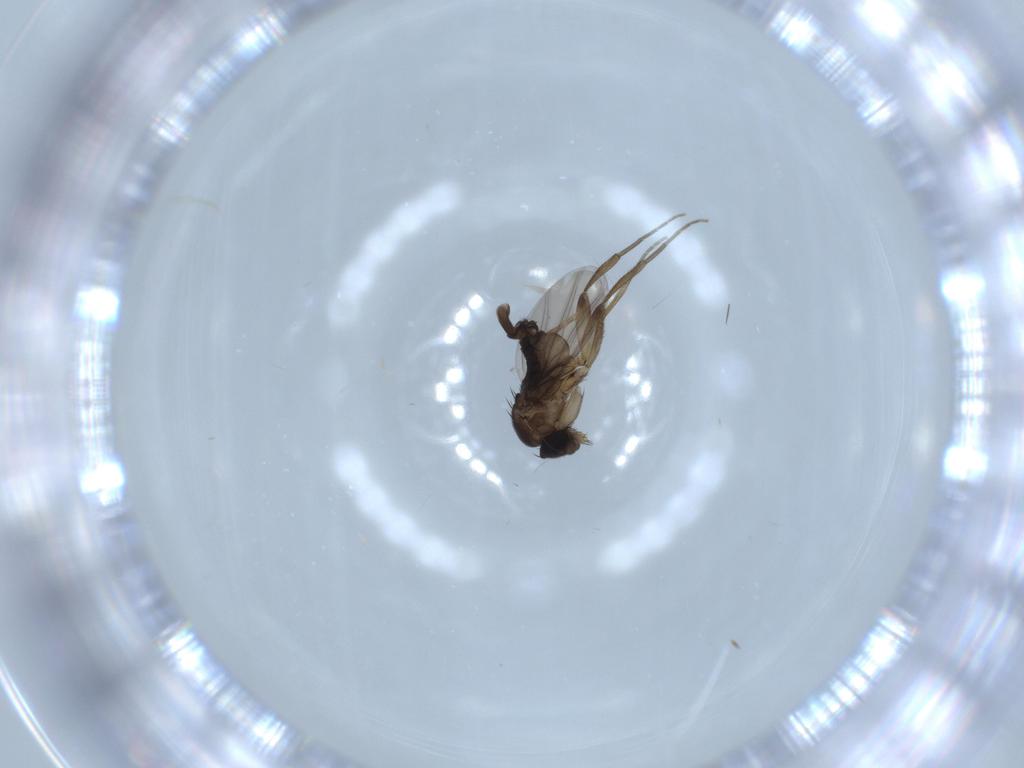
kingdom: Animalia
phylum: Arthropoda
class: Insecta
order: Diptera
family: Phoridae
